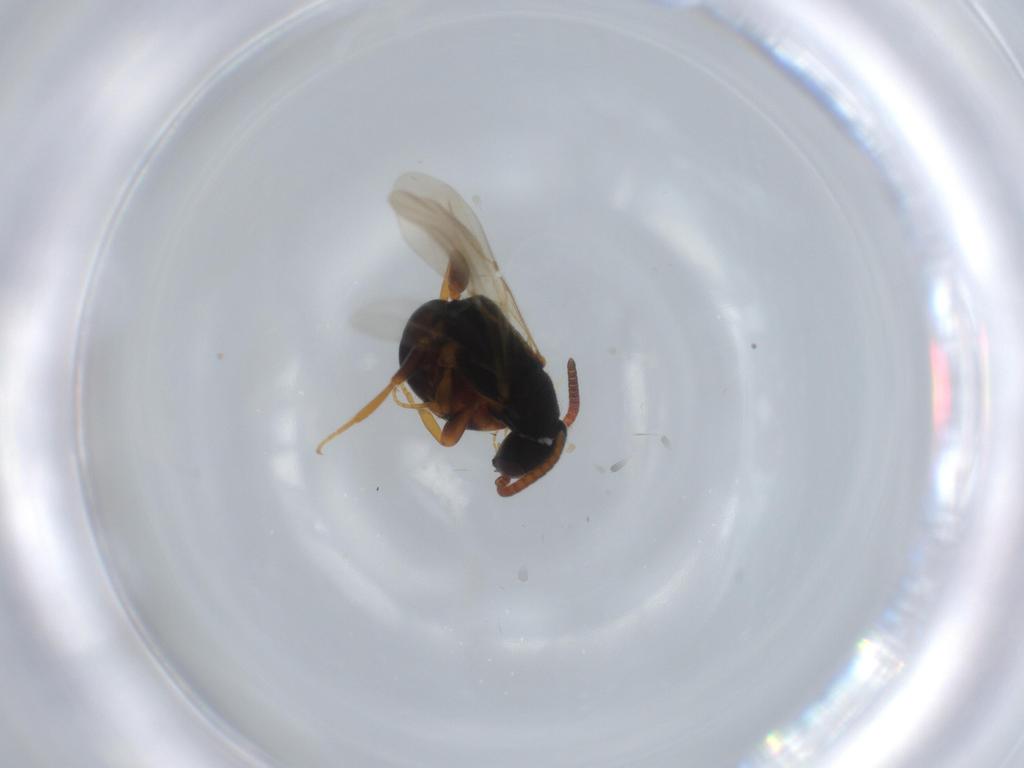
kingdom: Animalia
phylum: Arthropoda
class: Insecta
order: Hymenoptera
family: Bethylidae
